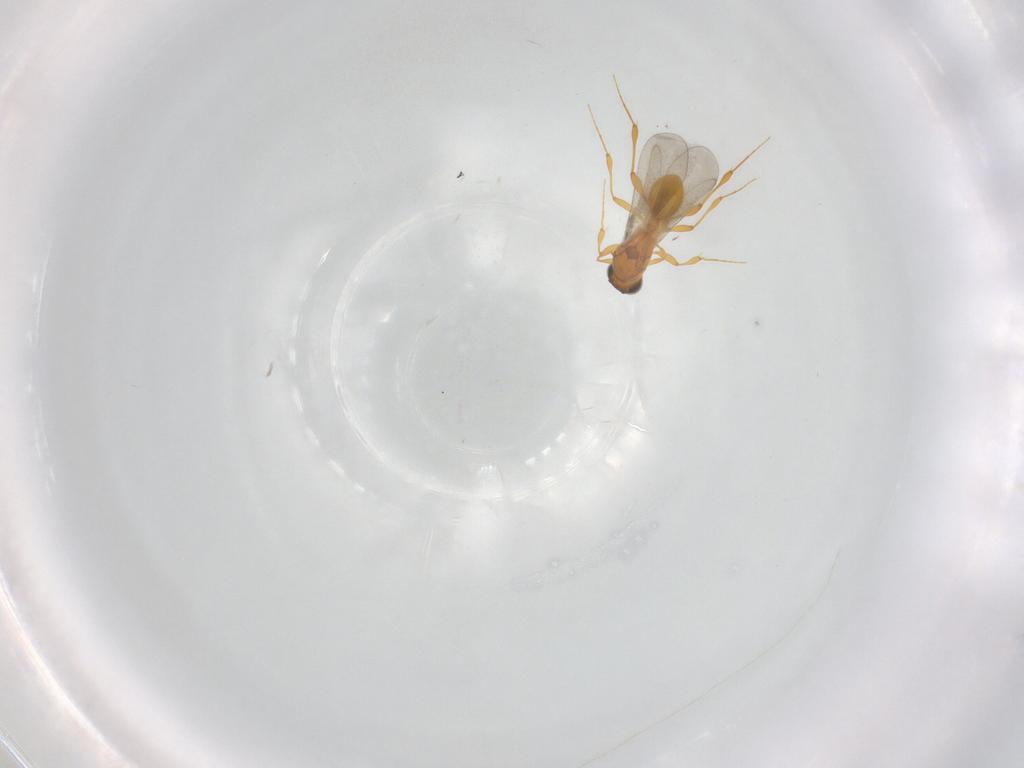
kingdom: Animalia
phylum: Arthropoda
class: Insecta
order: Hymenoptera
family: Platygastridae
